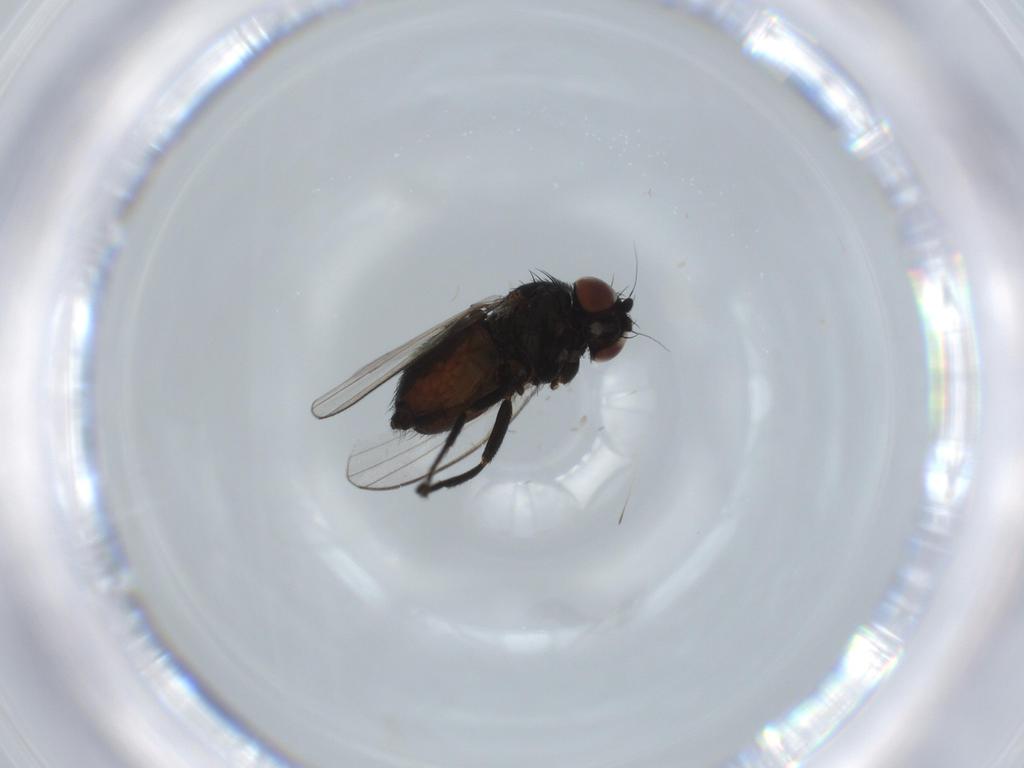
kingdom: Animalia
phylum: Arthropoda
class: Insecta
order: Diptera
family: Milichiidae
